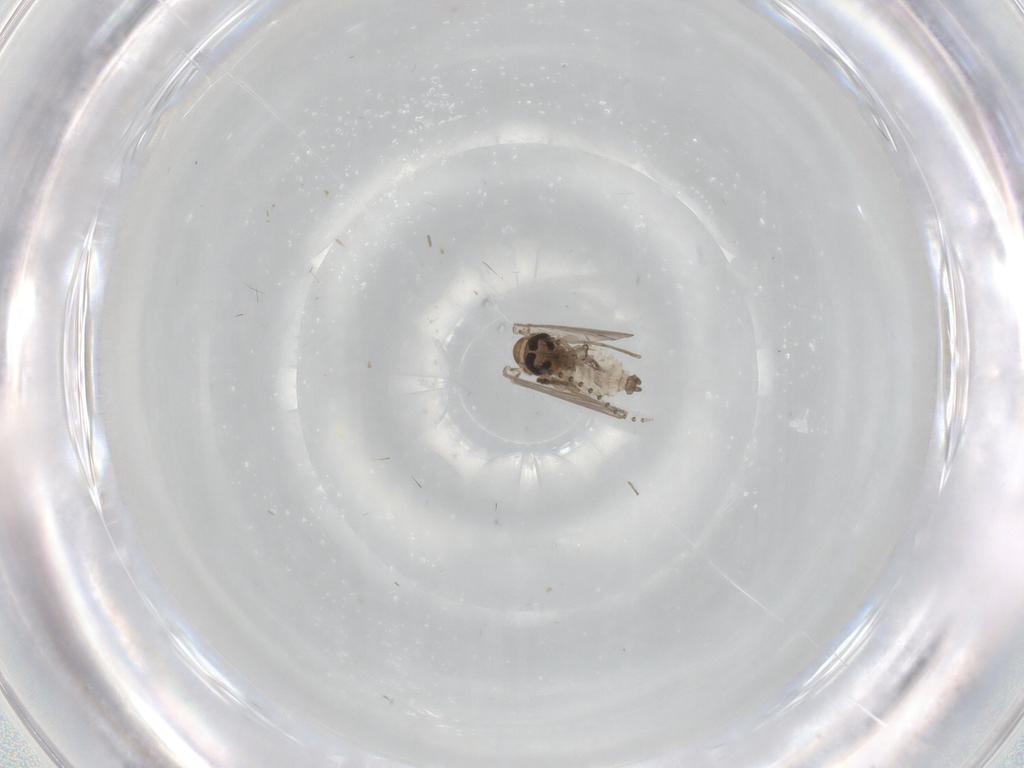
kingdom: Animalia
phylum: Arthropoda
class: Insecta
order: Diptera
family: Psychodidae
